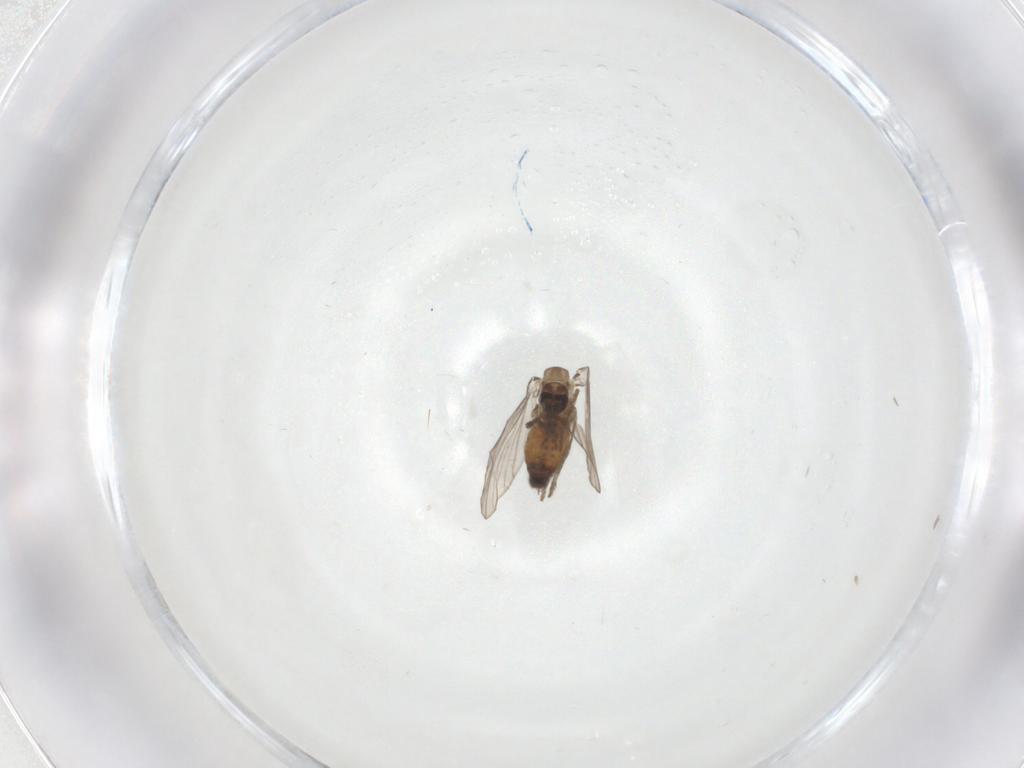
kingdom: Animalia
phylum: Arthropoda
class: Insecta
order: Diptera
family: Psychodidae
